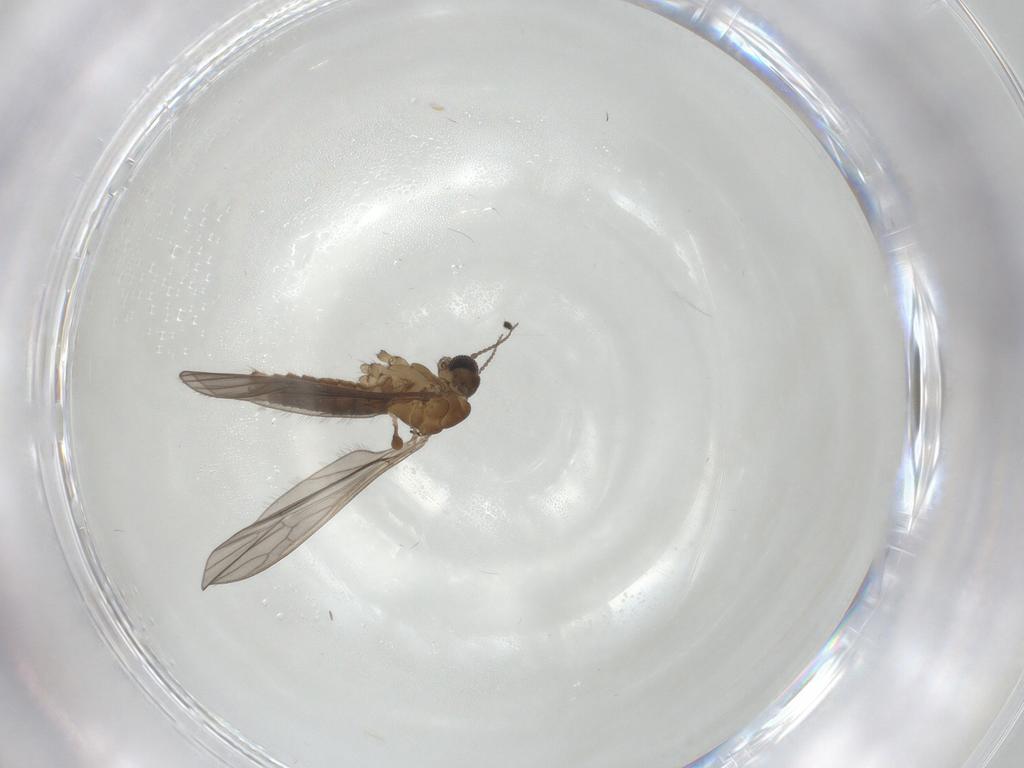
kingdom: Animalia
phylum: Arthropoda
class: Insecta
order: Diptera
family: Ceratopogonidae
